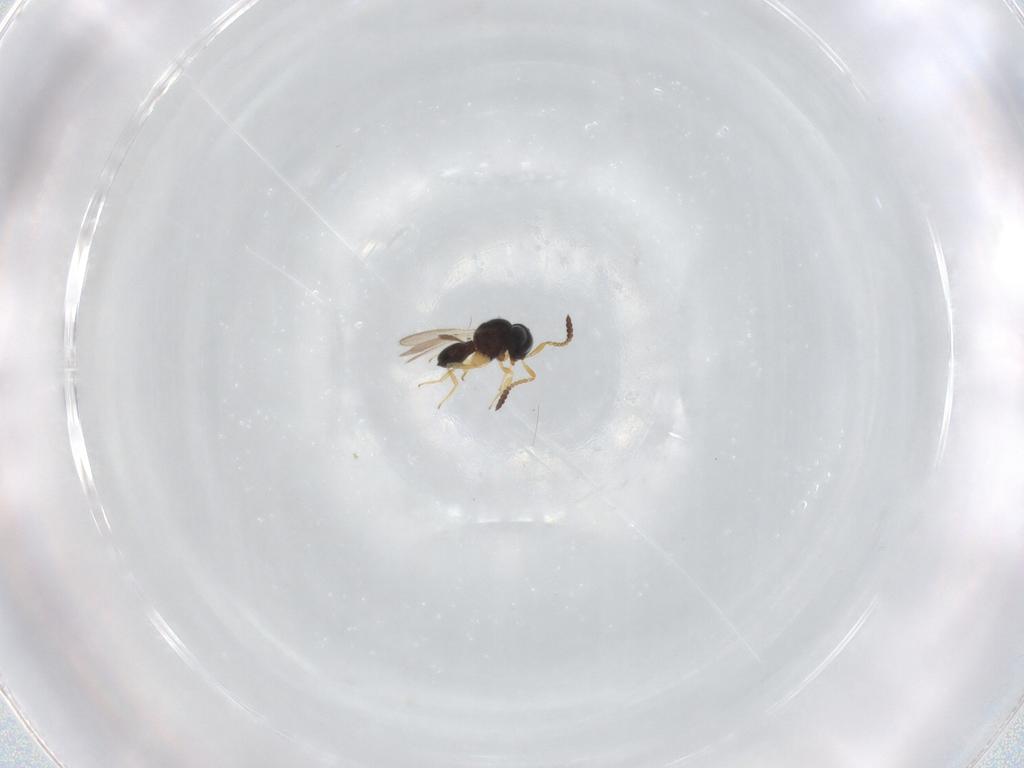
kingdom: Animalia
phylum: Arthropoda
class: Insecta
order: Hymenoptera
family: Scelionidae
